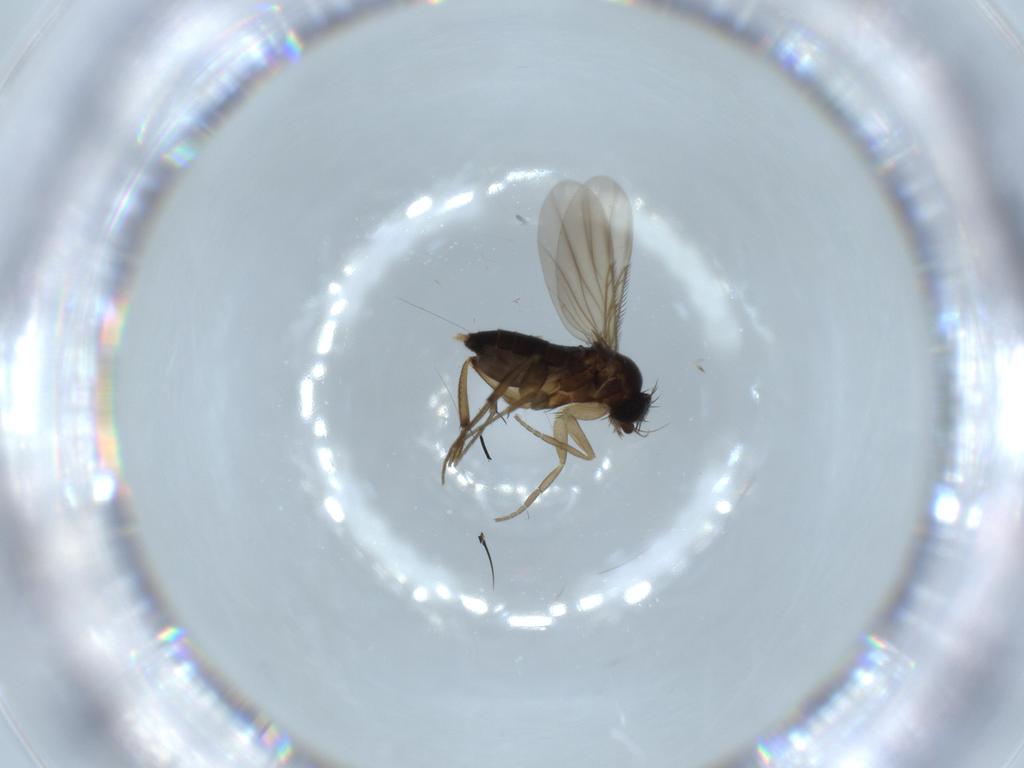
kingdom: Animalia
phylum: Arthropoda
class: Insecta
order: Diptera
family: Phoridae
